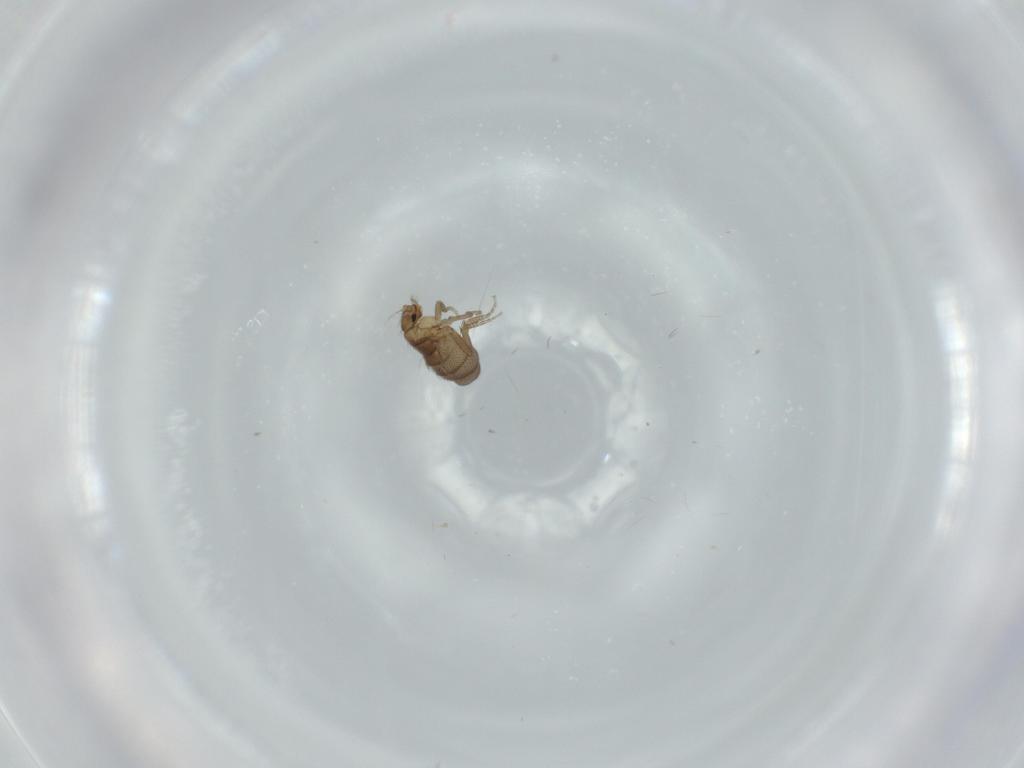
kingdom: Animalia
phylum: Arthropoda
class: Insecta
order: Diptera
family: Phoridae
